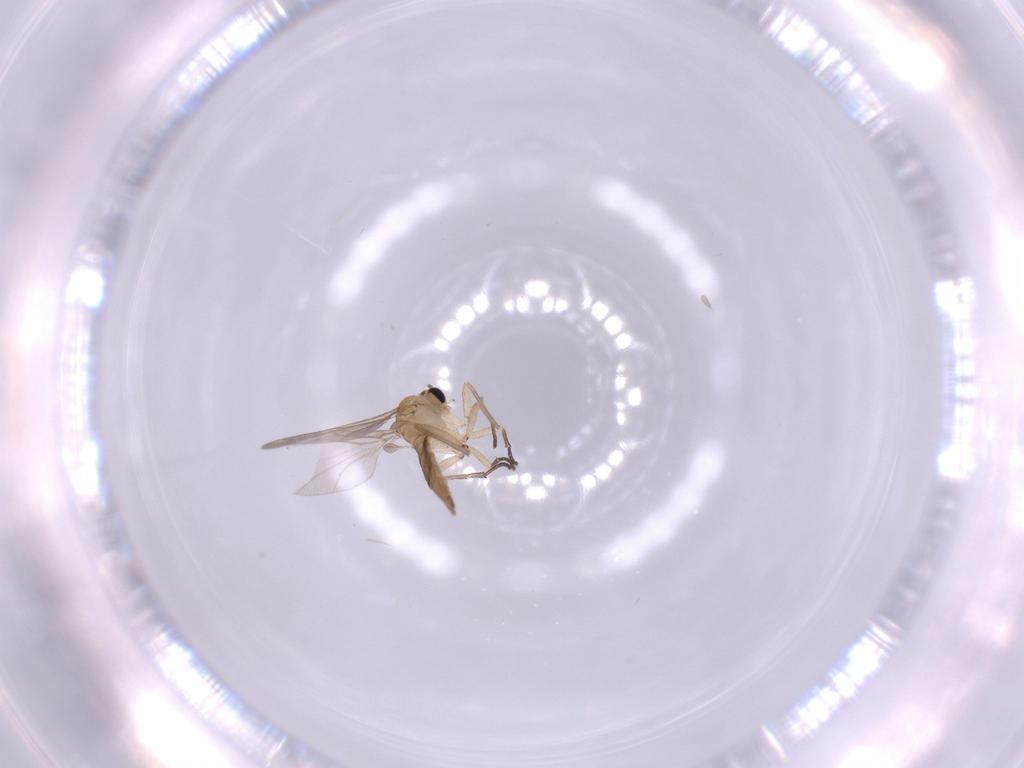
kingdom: Animalia
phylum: Arthropoda
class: Insecta
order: Diptera
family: Sciaridae
